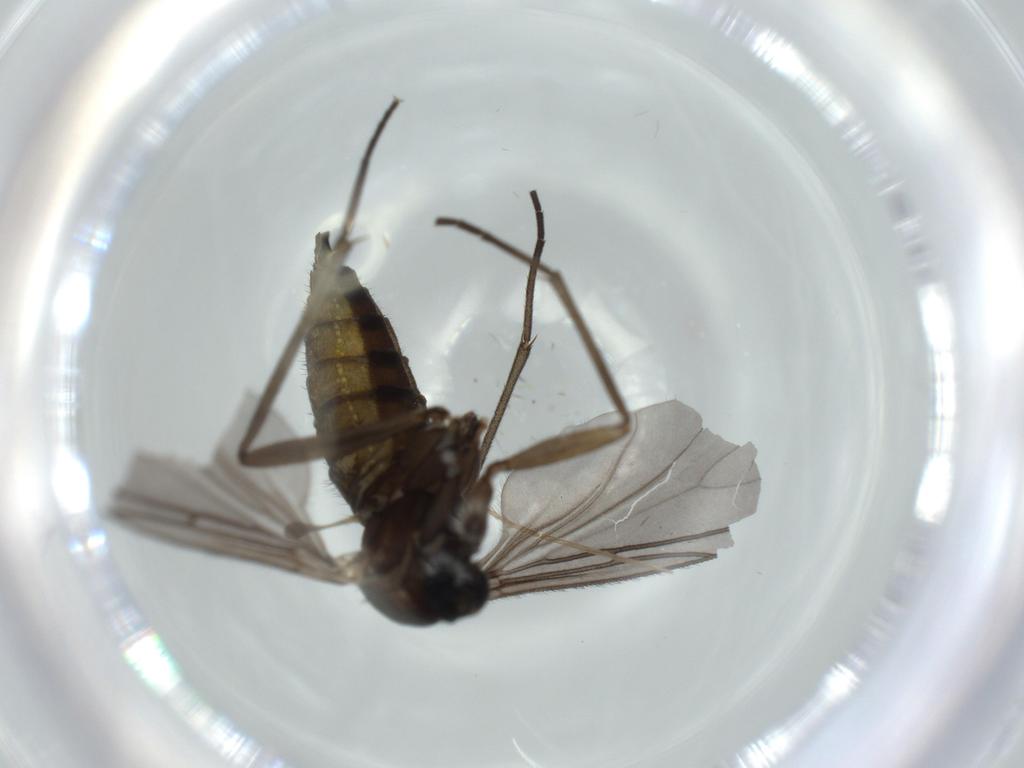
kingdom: Animalia
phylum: Arthropoda
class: Insecta
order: Diptera
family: Sciaridae
